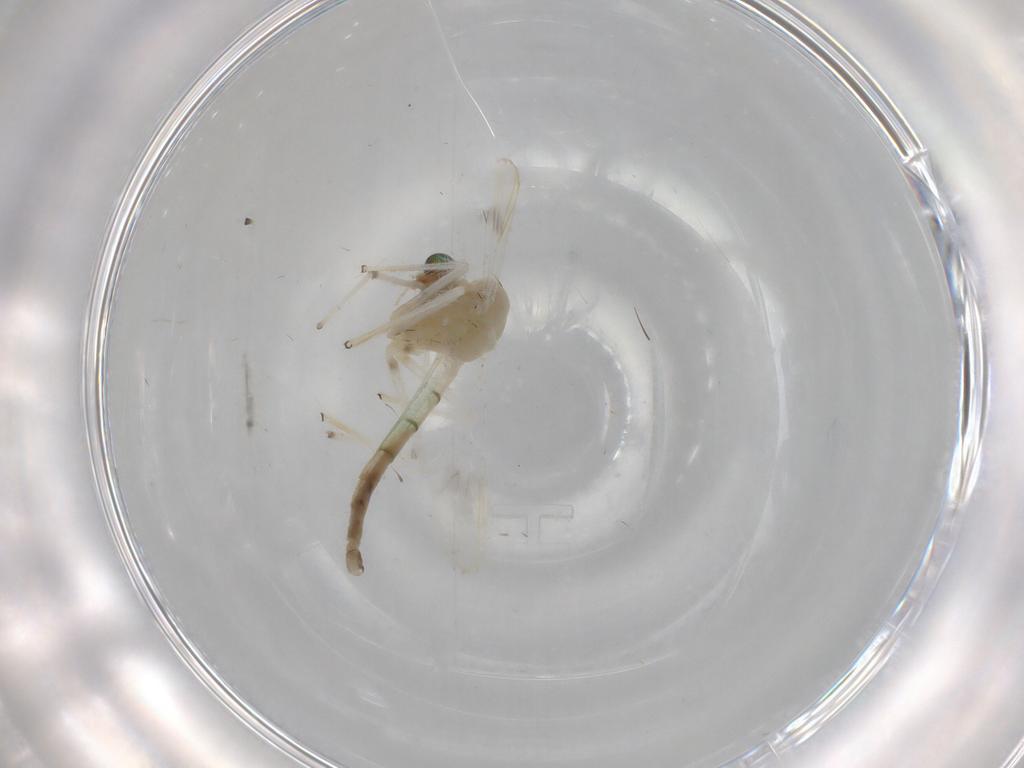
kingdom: Animalia
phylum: Arthropoda
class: Insecta
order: Diptera
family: Chironomidae
